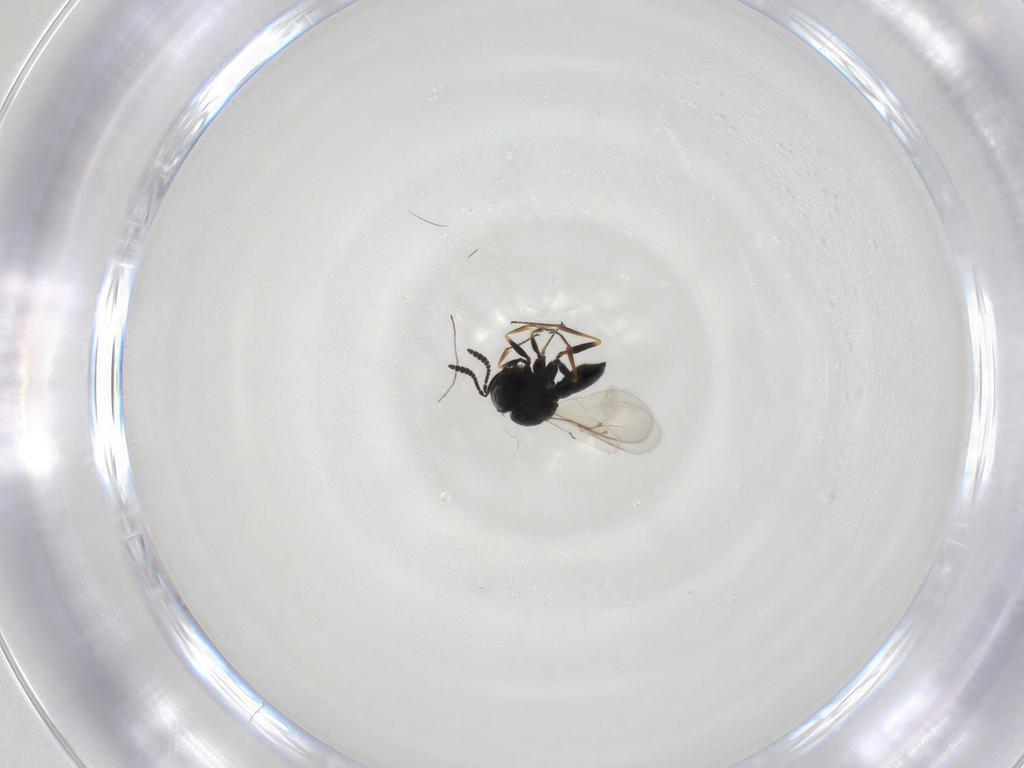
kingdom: Animalia
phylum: Arthropoda
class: Insecta
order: Hymenoptera
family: Scelionidae
